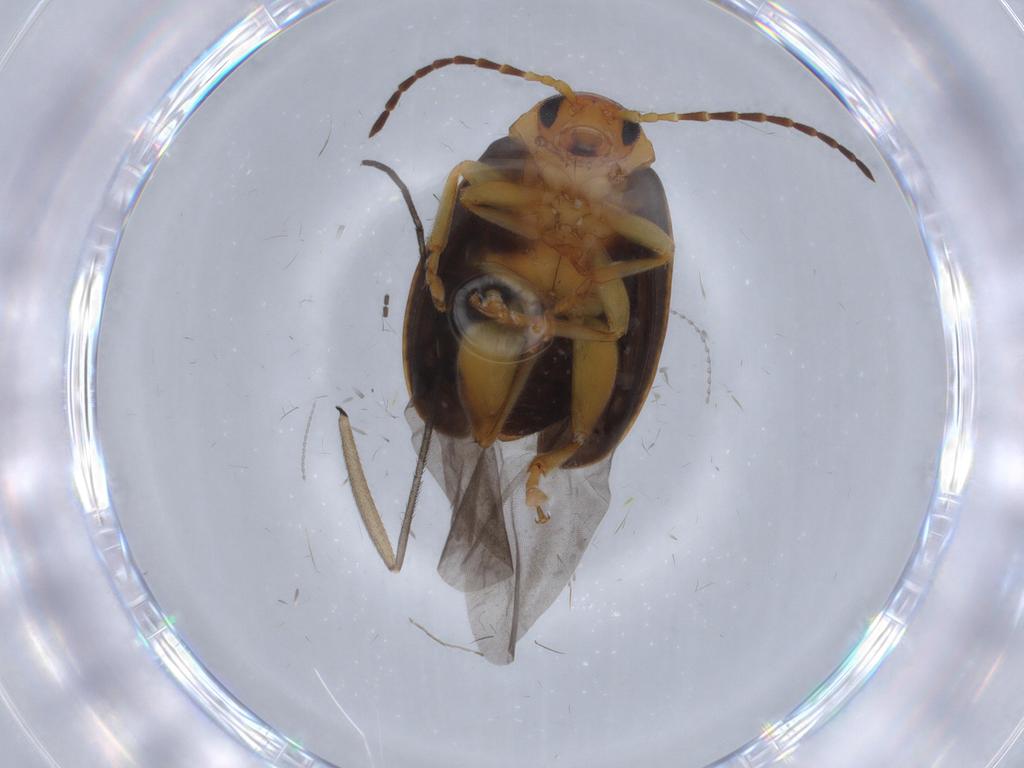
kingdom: Animalia
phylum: Arthropoda
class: Insecta
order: Coleoptera
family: Chrysomelidae
